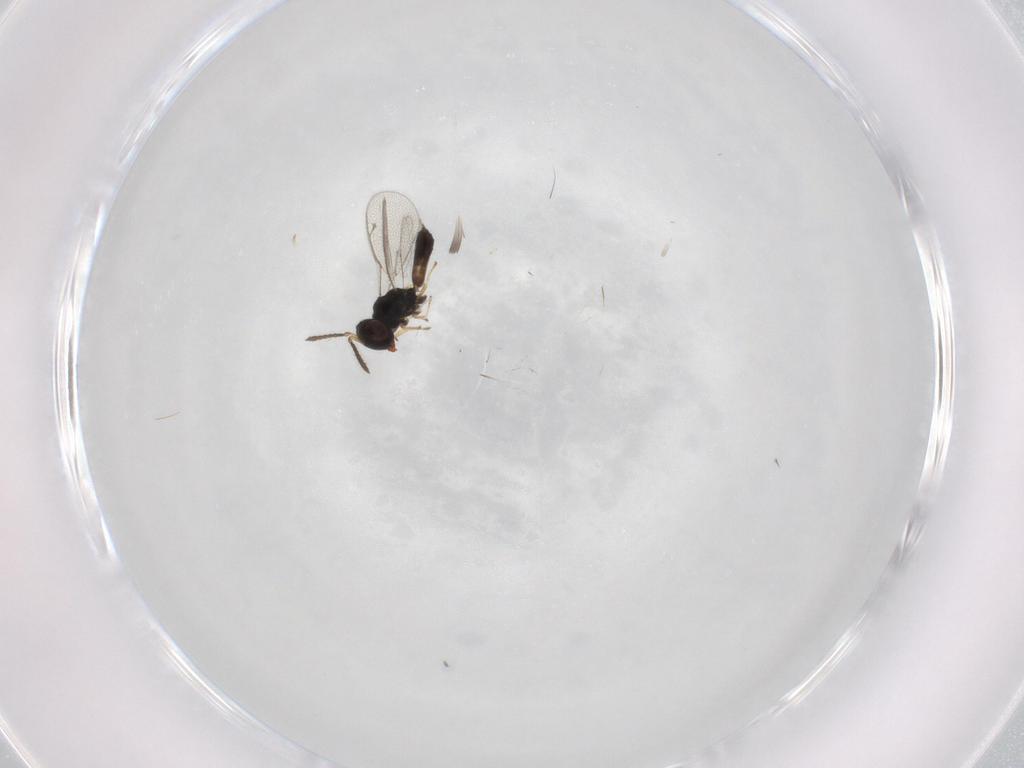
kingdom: Animalia
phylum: Arthropoda
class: Insecta
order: Hymenoptera
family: Pteromalidae
